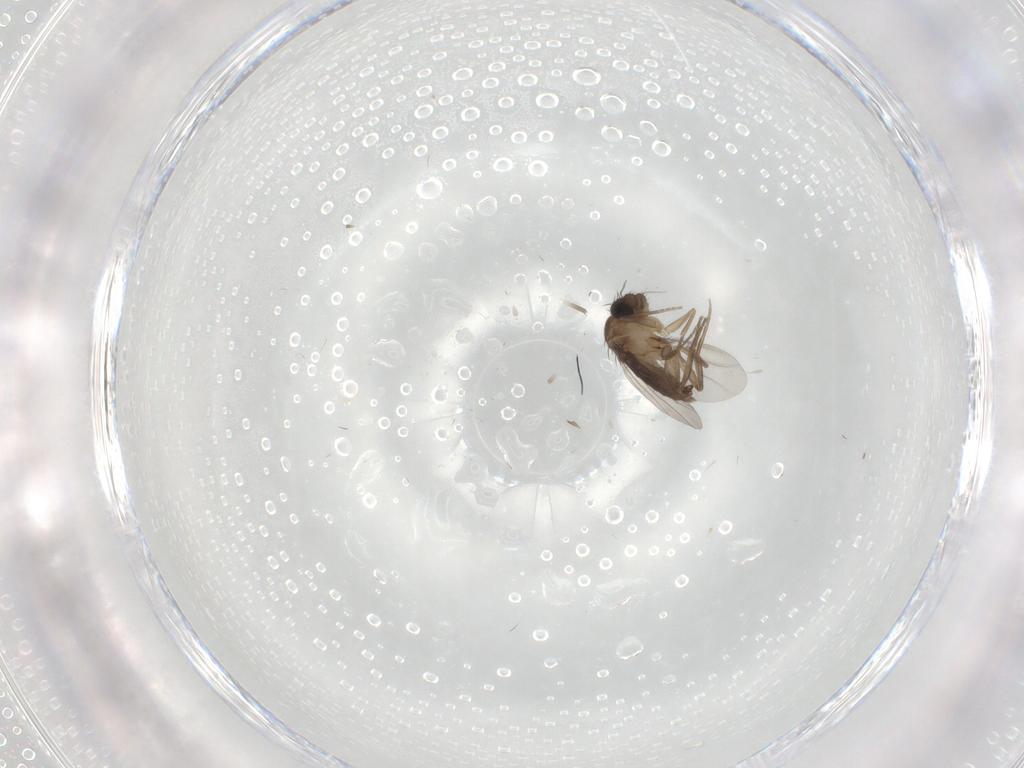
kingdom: Animalia
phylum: Arthropoda
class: Insecta
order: Diptera
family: Phoridae
